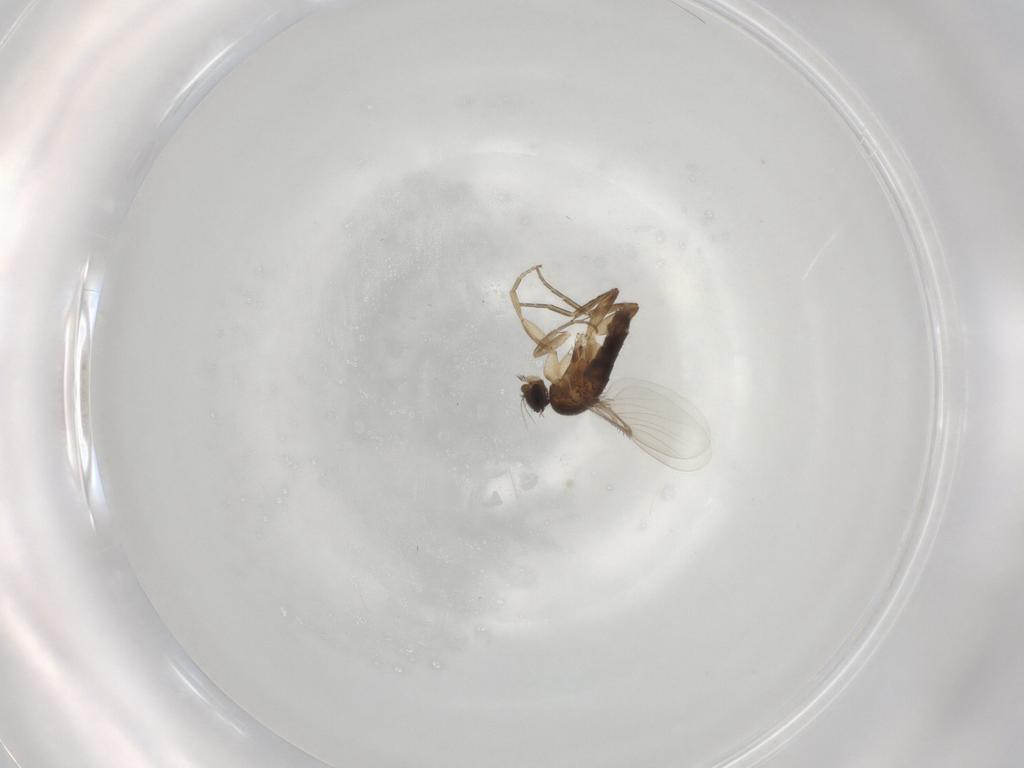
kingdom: Animalia
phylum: Arthropoda
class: Insecta
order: Diptera
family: Phoridae
